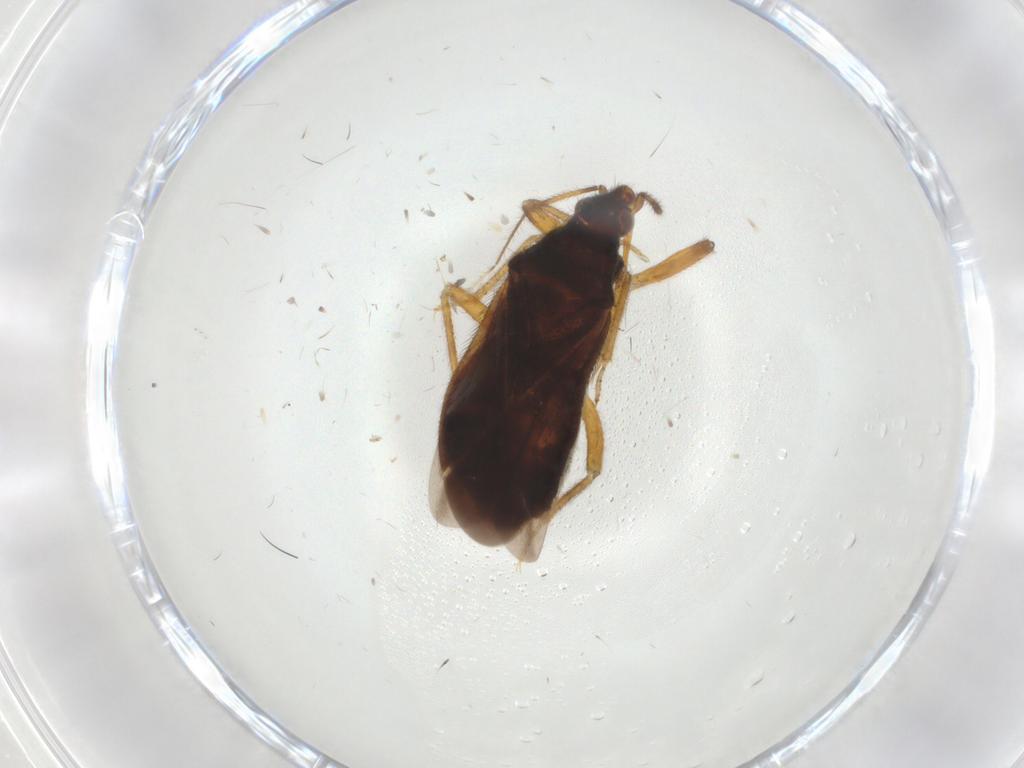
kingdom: Animalia
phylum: Arthropoda
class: Insecta
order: Hemiptera
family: Anthocoridae
